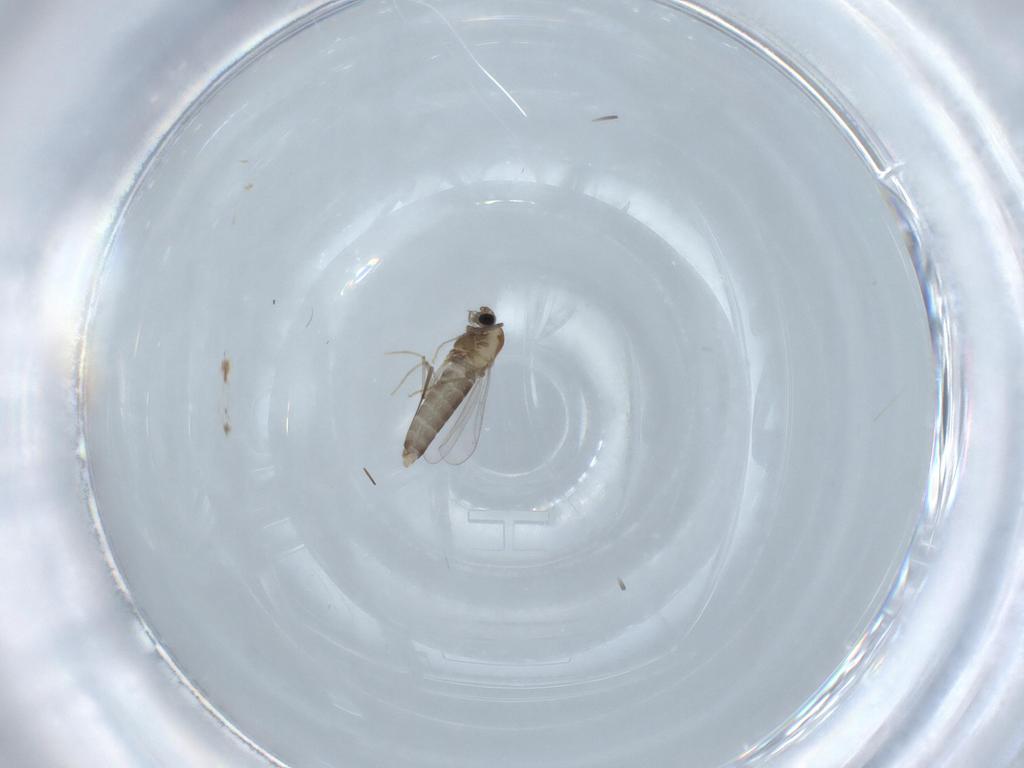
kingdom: Animalia
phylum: Arthropoda
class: Insecta
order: Diptera
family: Chironomidae
